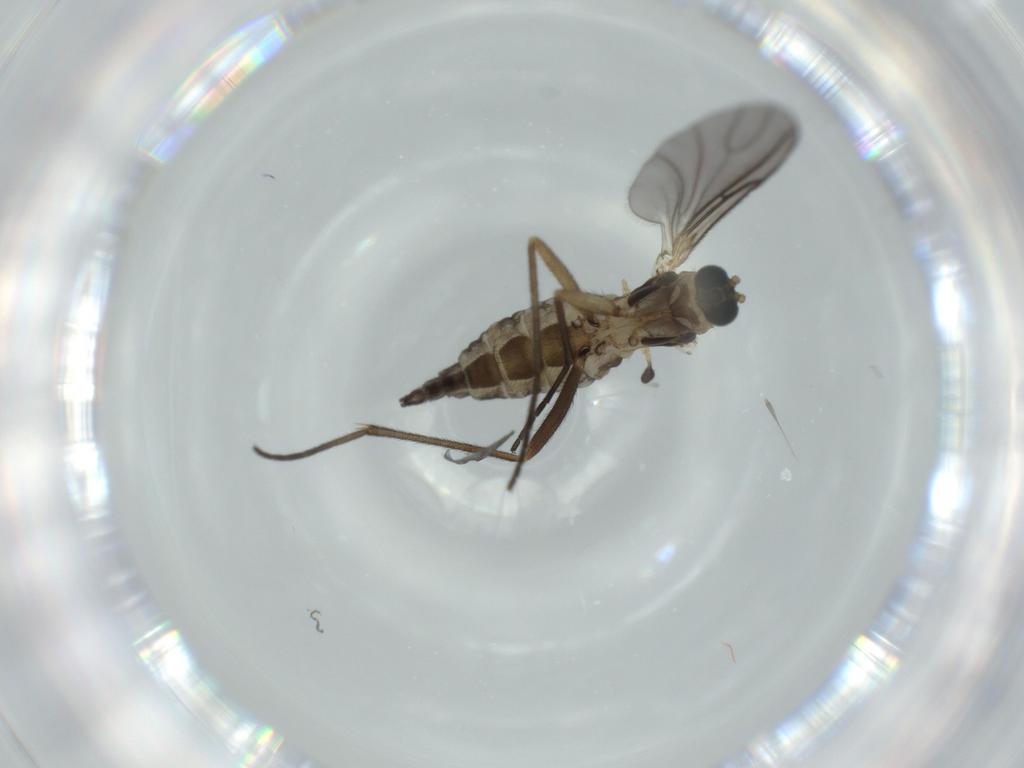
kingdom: Animalia
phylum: Arthropoda
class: Insecta
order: Diptera
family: Sciaridae
